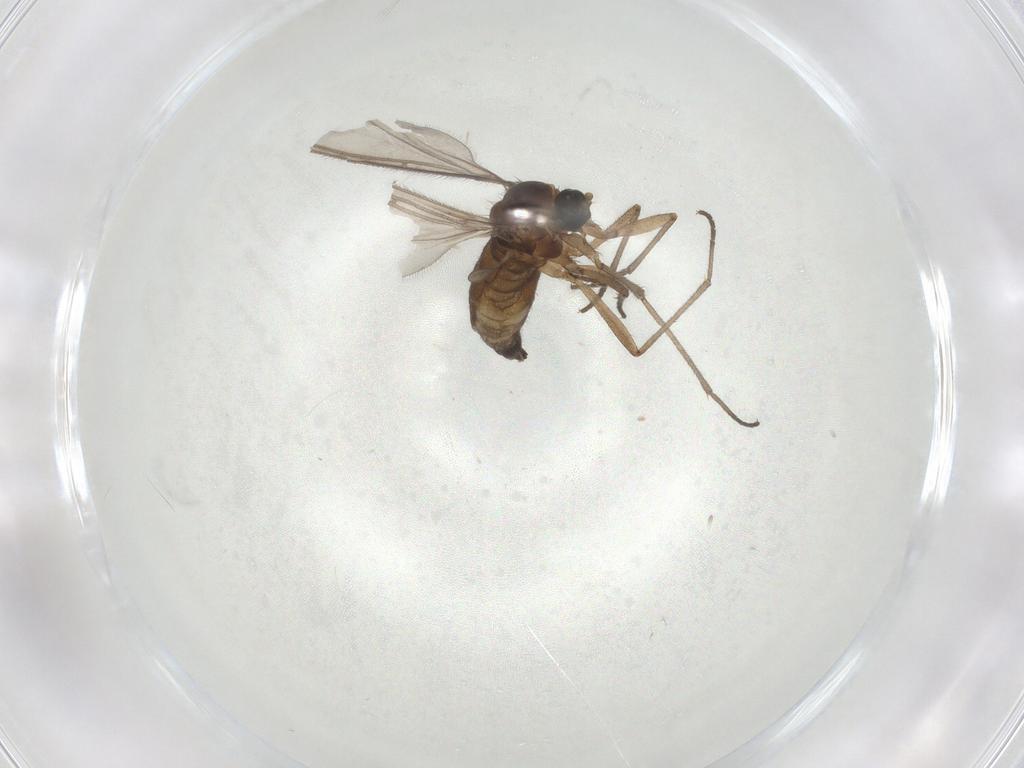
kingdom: Animalia
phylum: Arthropoda
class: Insecta
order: Diptera
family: Sciaridae
